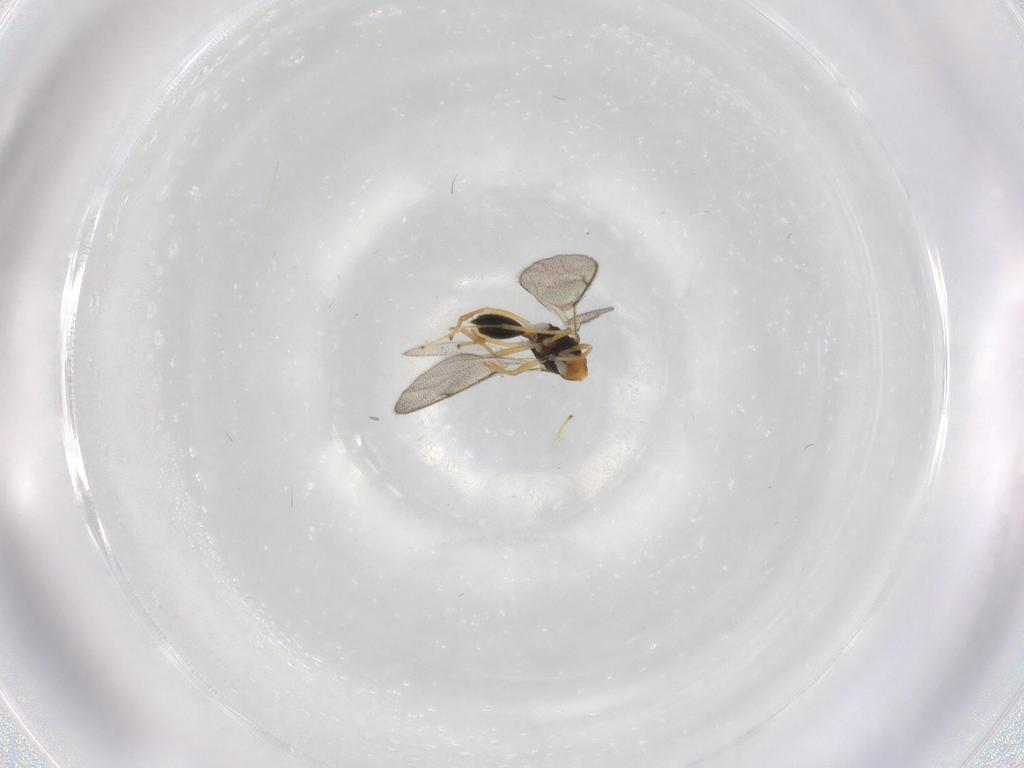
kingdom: Animalia
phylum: Arthropoda
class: Insecta
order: Hymenoptera
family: Diparidae
